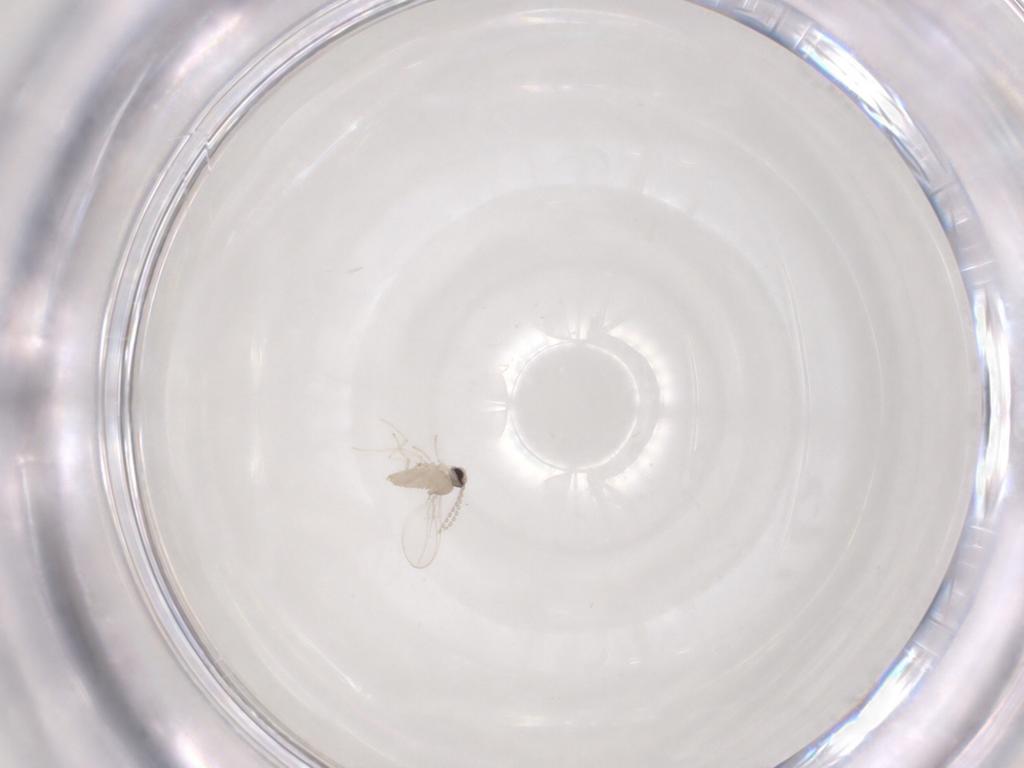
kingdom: Animalia
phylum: Arthropoda
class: Insecta
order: Diptera
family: Cecidomyiidae
